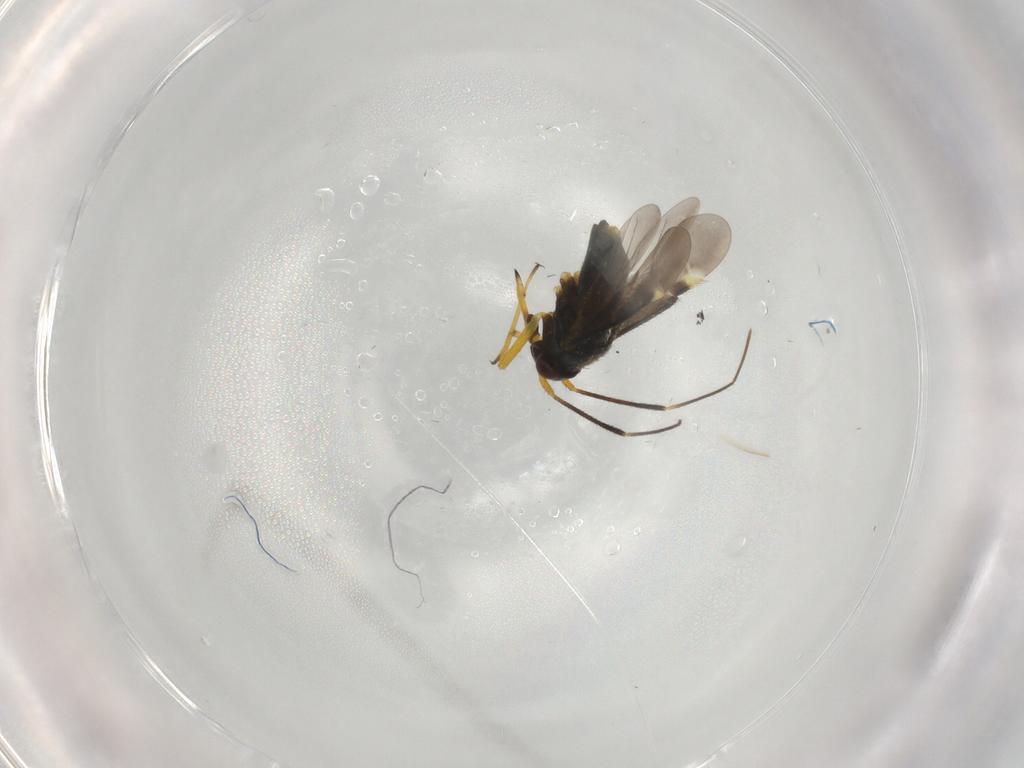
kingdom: Animalia
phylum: Arthropoda
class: Insecta
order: Hemiptera
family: Miridae
